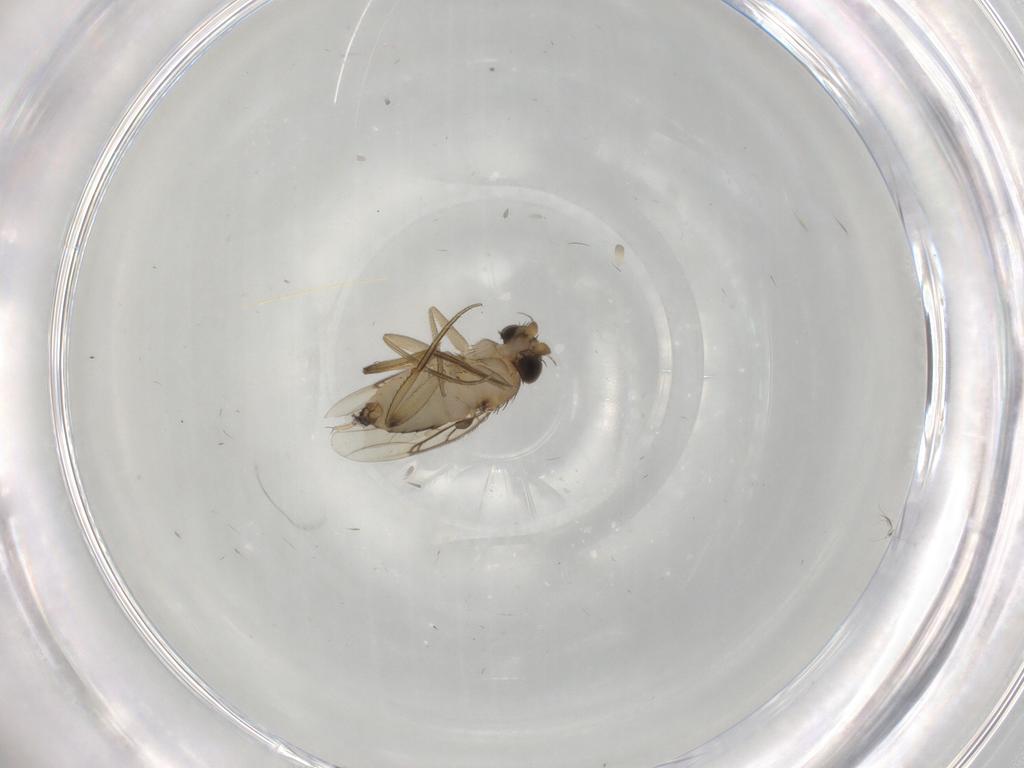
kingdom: Animalia
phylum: Arthropoda
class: Insecta
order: Diptera
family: Phoridae
